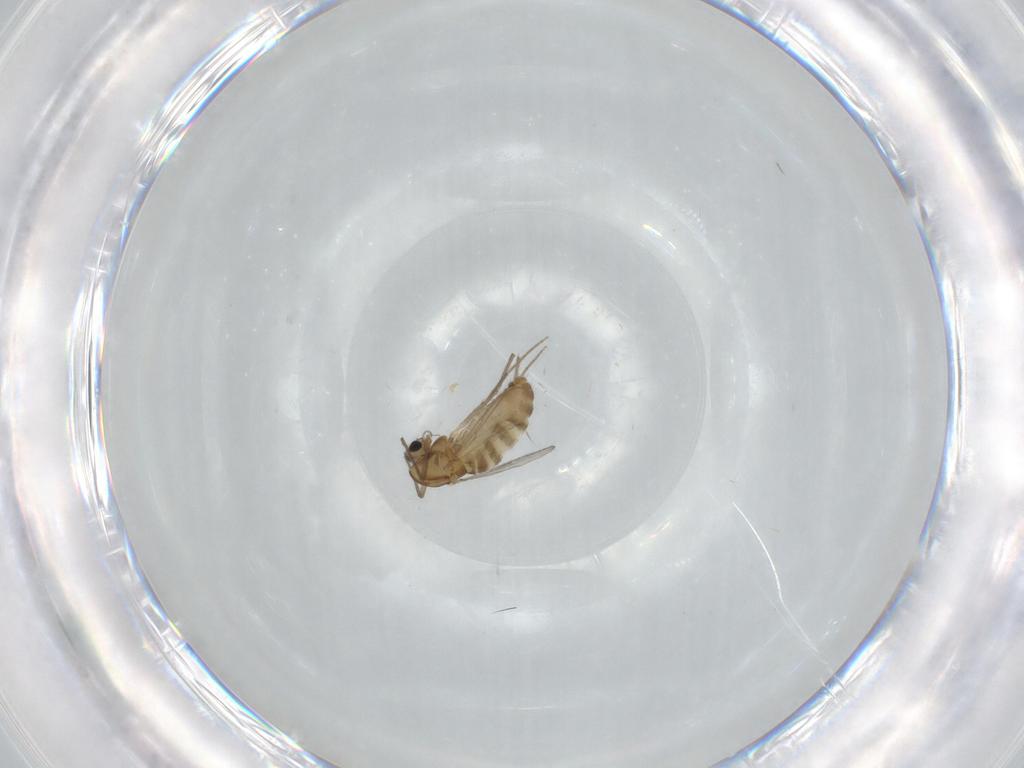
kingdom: Animalia
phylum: Arthropoda
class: Insecta
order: Diptera
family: Chironomidae
